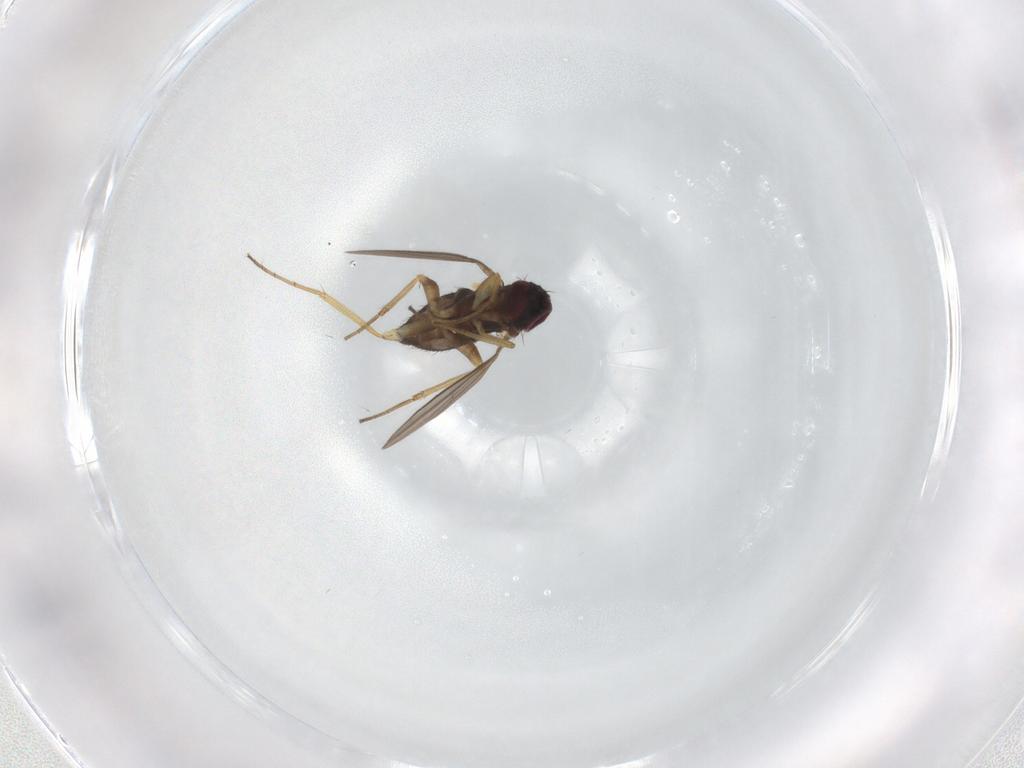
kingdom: Animalia
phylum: Arthropoda
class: Insecta
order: Diptera
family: Dolichopodidae
